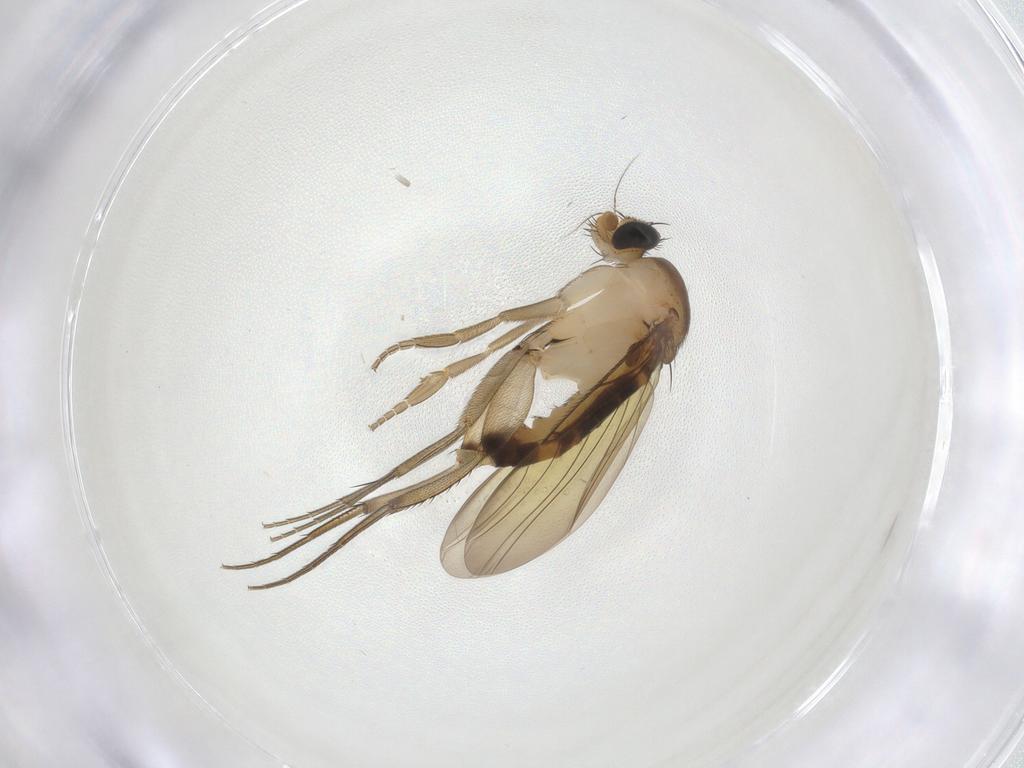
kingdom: Animalia
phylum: Arthropoda
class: Insecta
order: Diptera
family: Phoridae
